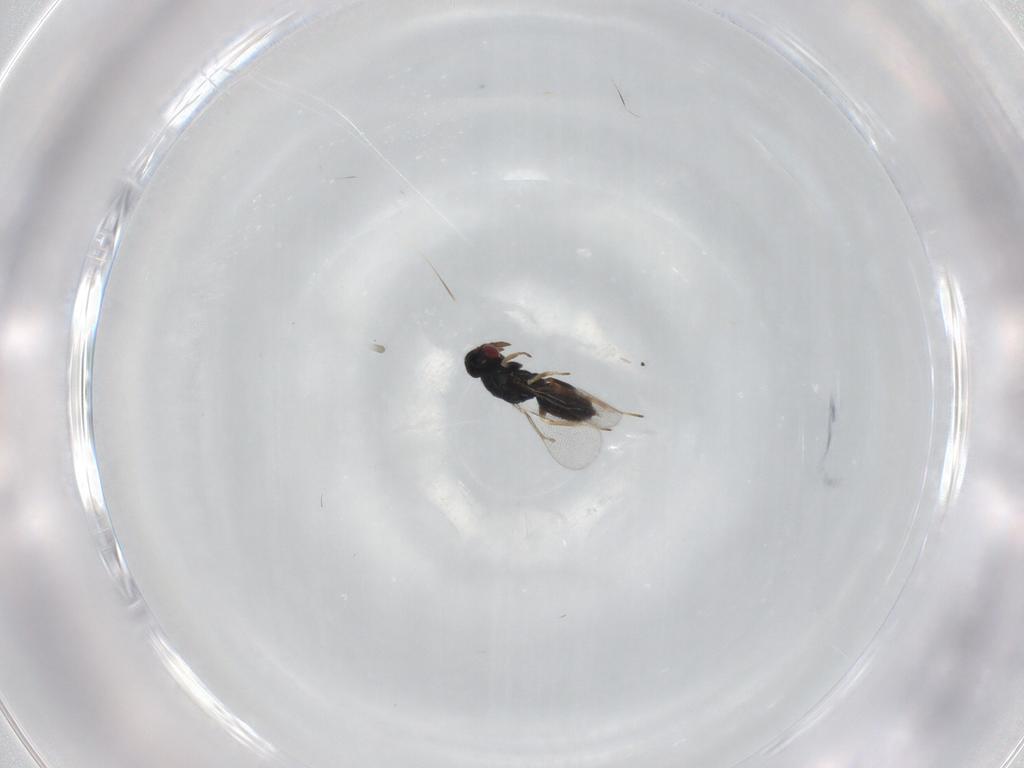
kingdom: Animalia
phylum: Arthropoda
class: Insecta
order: Hymenoptera
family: Eulophidae
